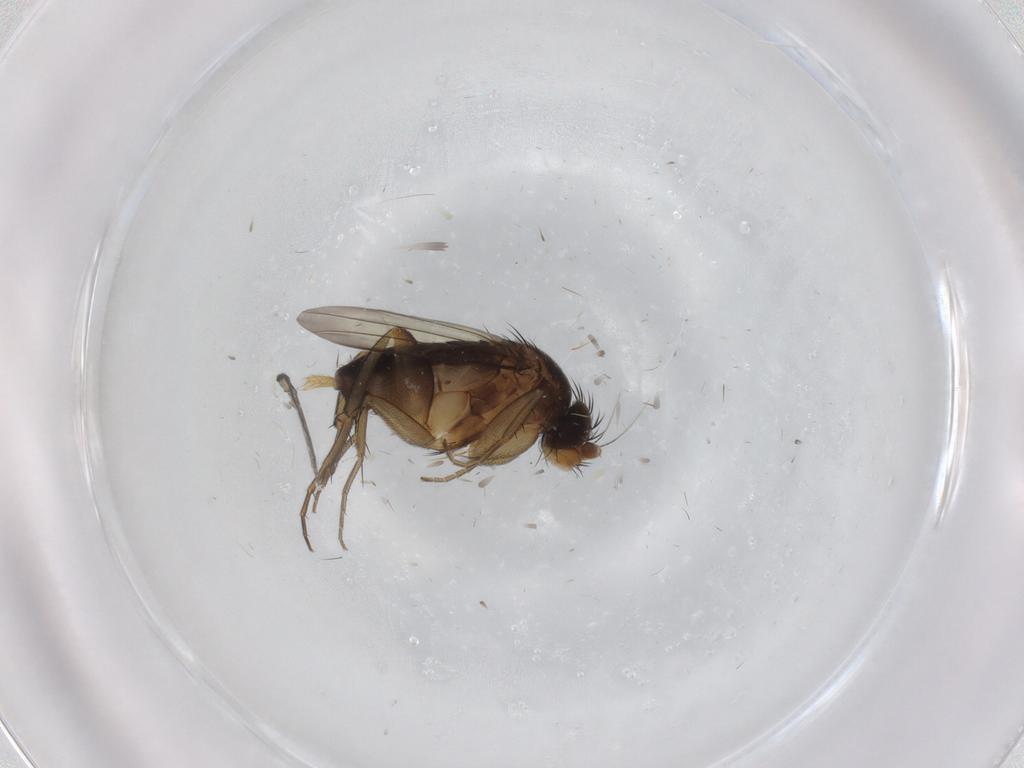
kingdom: Animalia
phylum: Arthropoda
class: Insecta
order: Diptera
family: Phoridae
